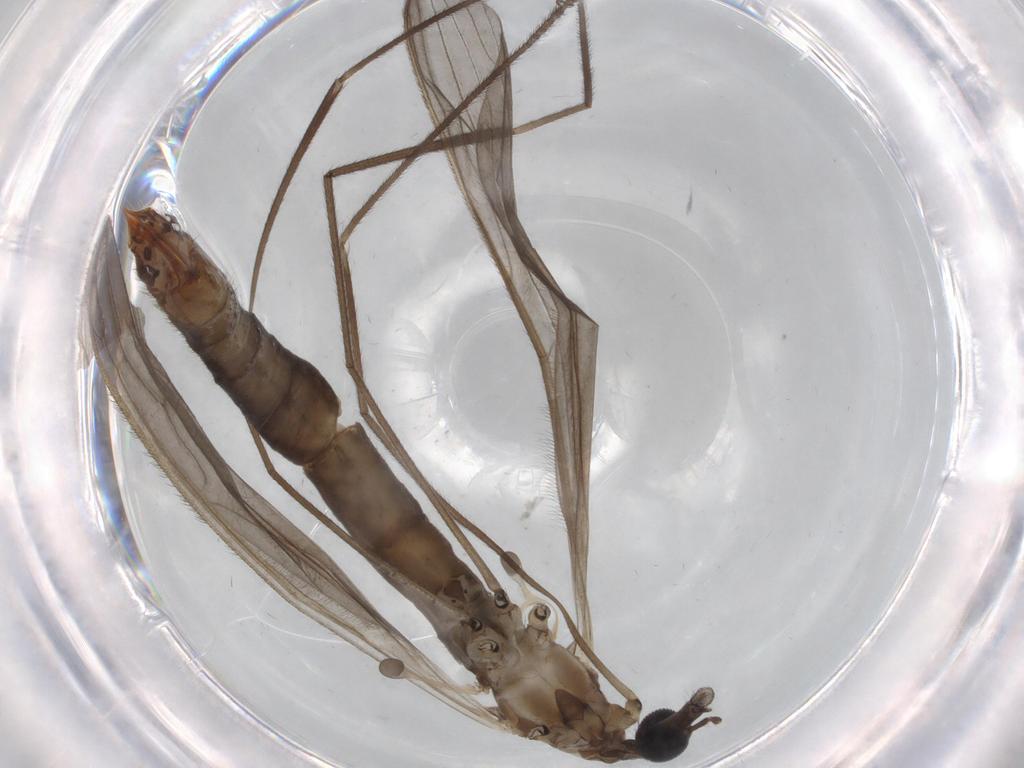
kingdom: Animalia
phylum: Arthropoda
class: Insecta
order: Diptera
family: Sciaridae
